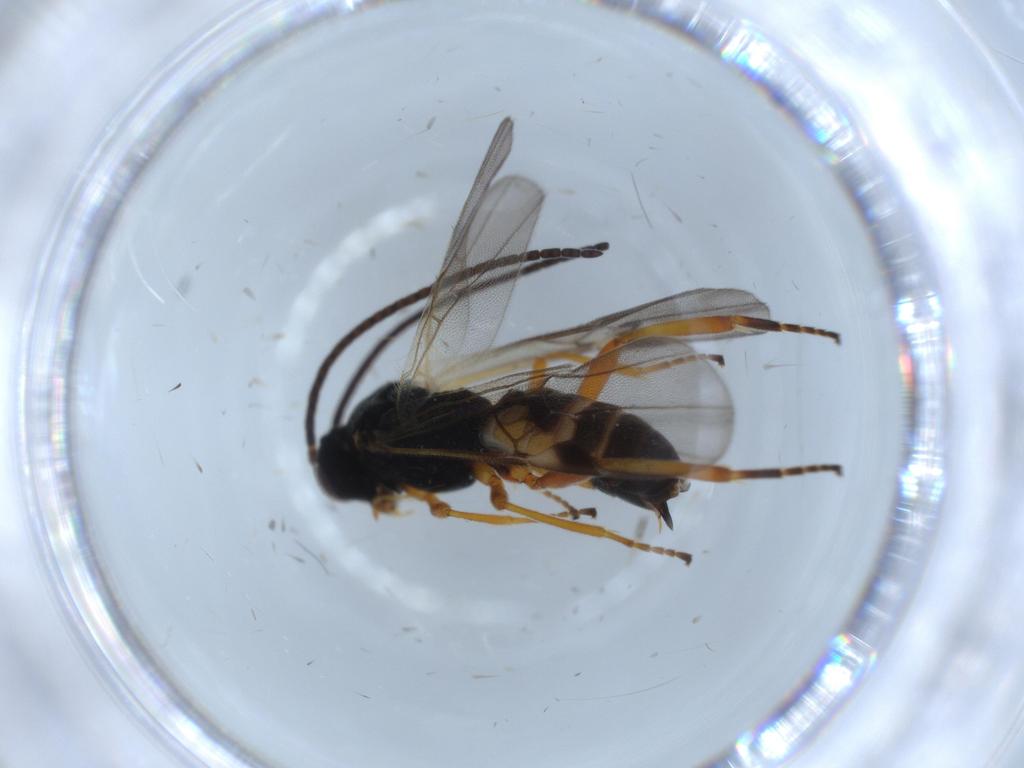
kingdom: Animalia
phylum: Arthropoda
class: Insecta
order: Hymenoptera
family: Braconidae
